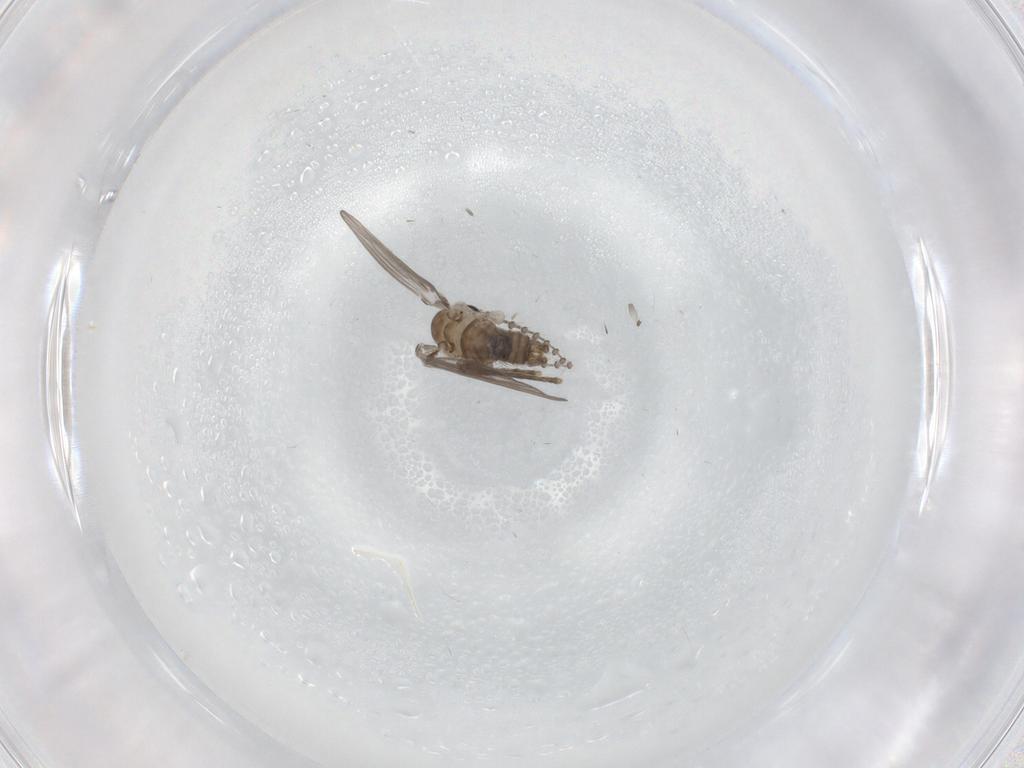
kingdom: Animalia
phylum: Arthropoda
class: Insecta
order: Diptera
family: Psychodidae
